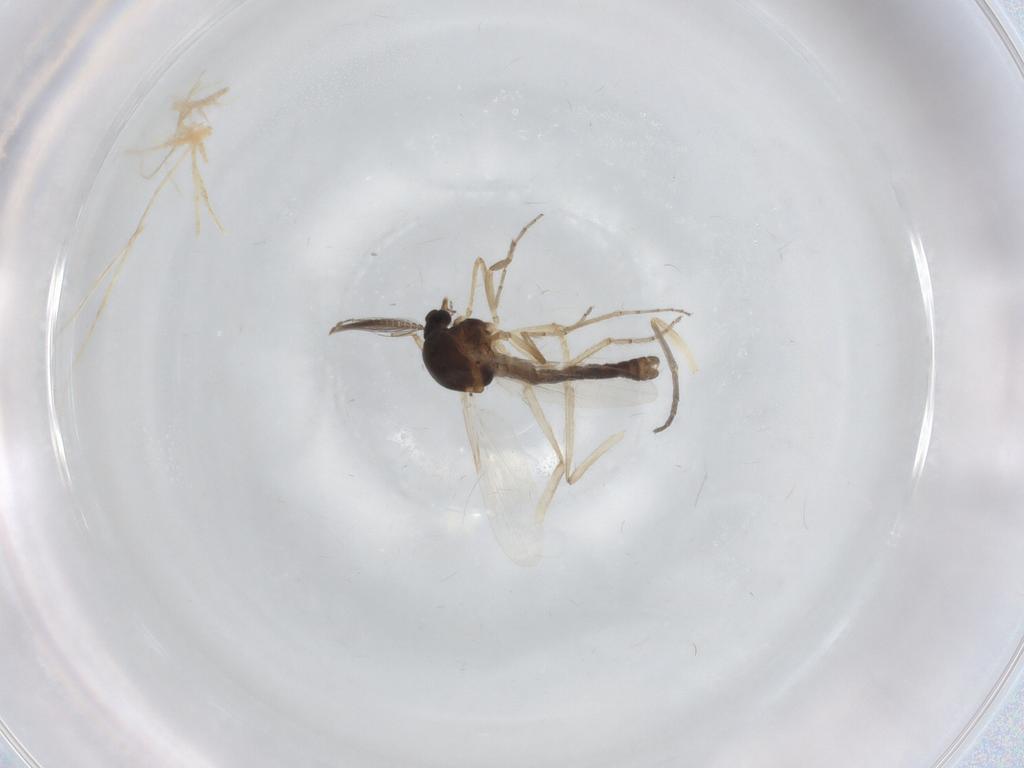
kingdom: Animalia
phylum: Arthropoda
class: Insecta
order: Diptera
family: Psychodidae
